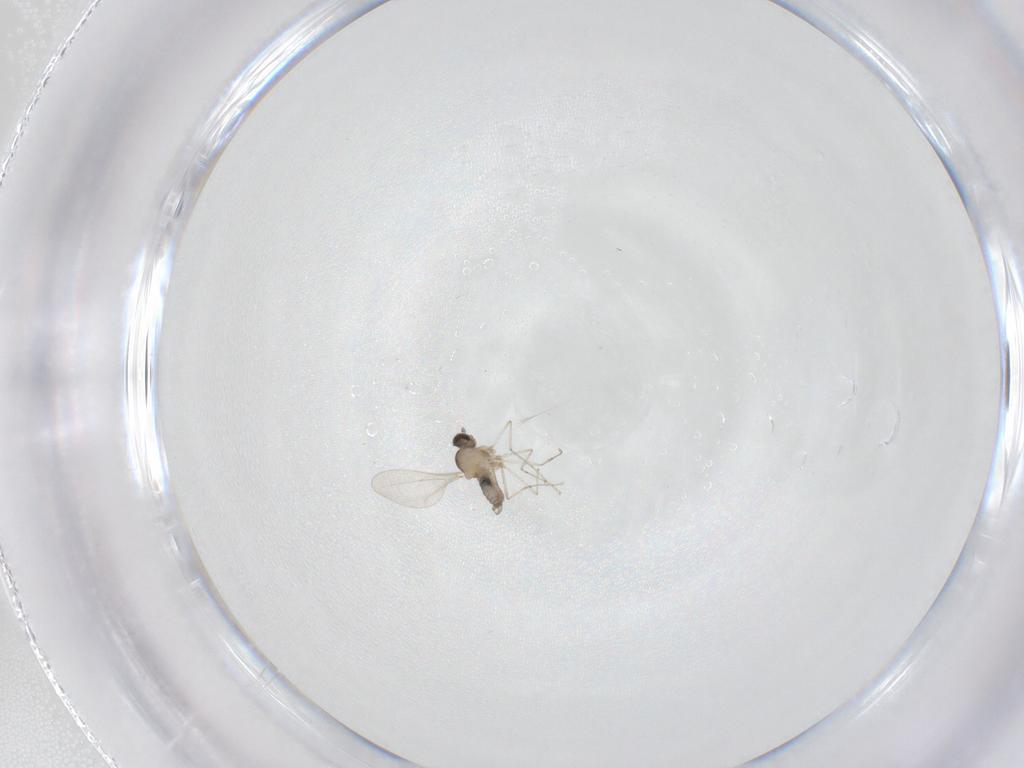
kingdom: Animalia
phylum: Arthropoda
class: Insecta
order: Diptera
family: Cecidomyiidae
